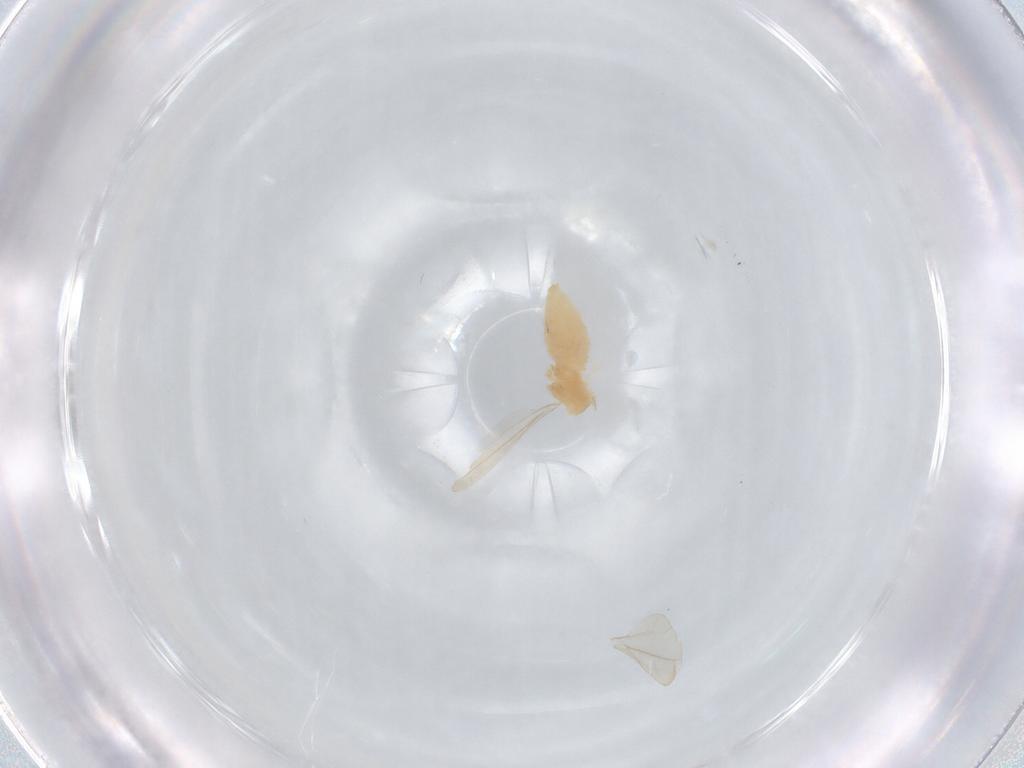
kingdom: Animalia
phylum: Arthropoda
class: Insecta
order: Diptera
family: Cecidomyiidae
